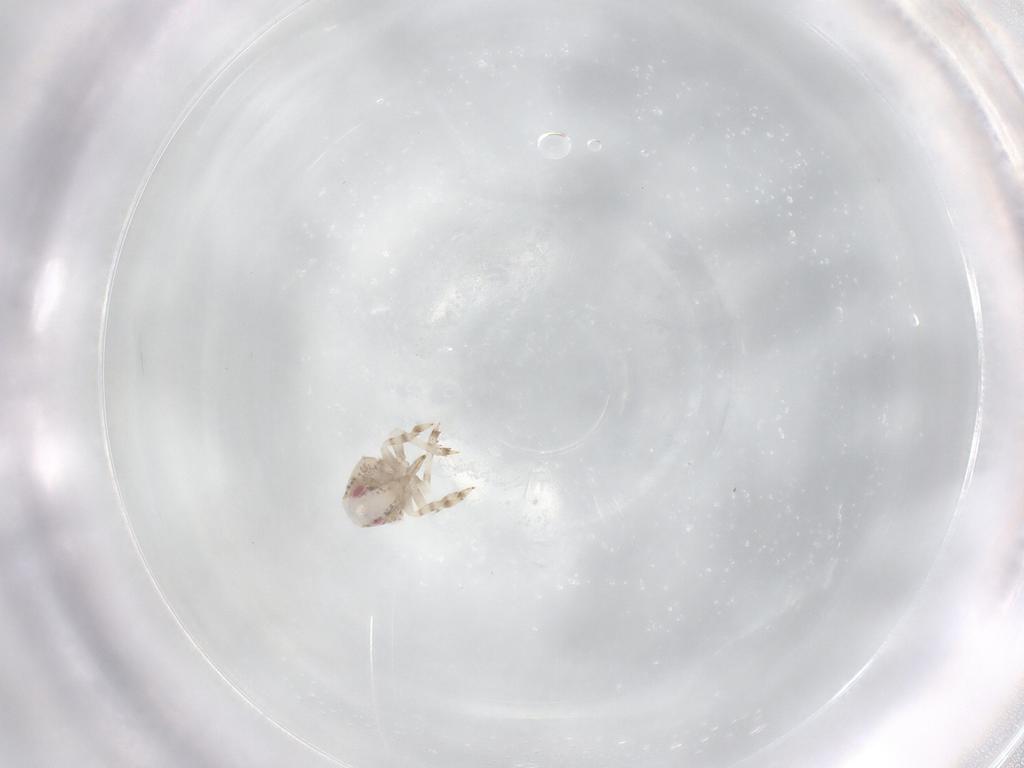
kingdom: Animalia
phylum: Arthropoda
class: Insecta
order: Hemiptera
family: Acanaloniidae
